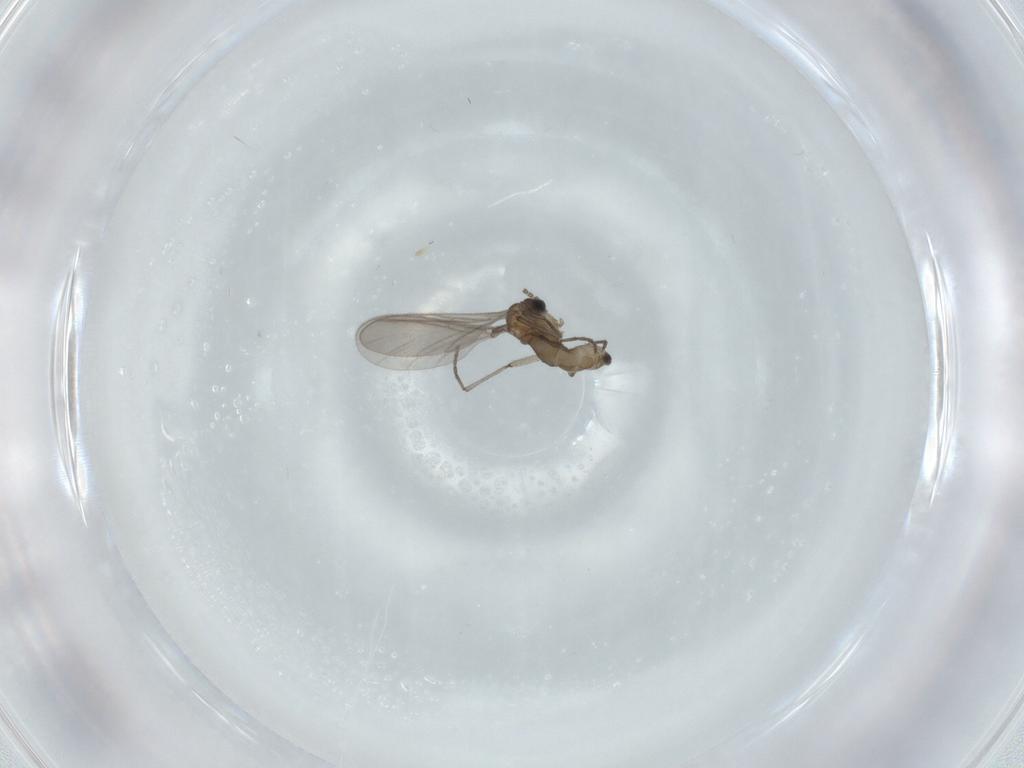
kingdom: Animalia
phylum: Arthropoda
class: Insecta
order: Diptera
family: Sciaridae
